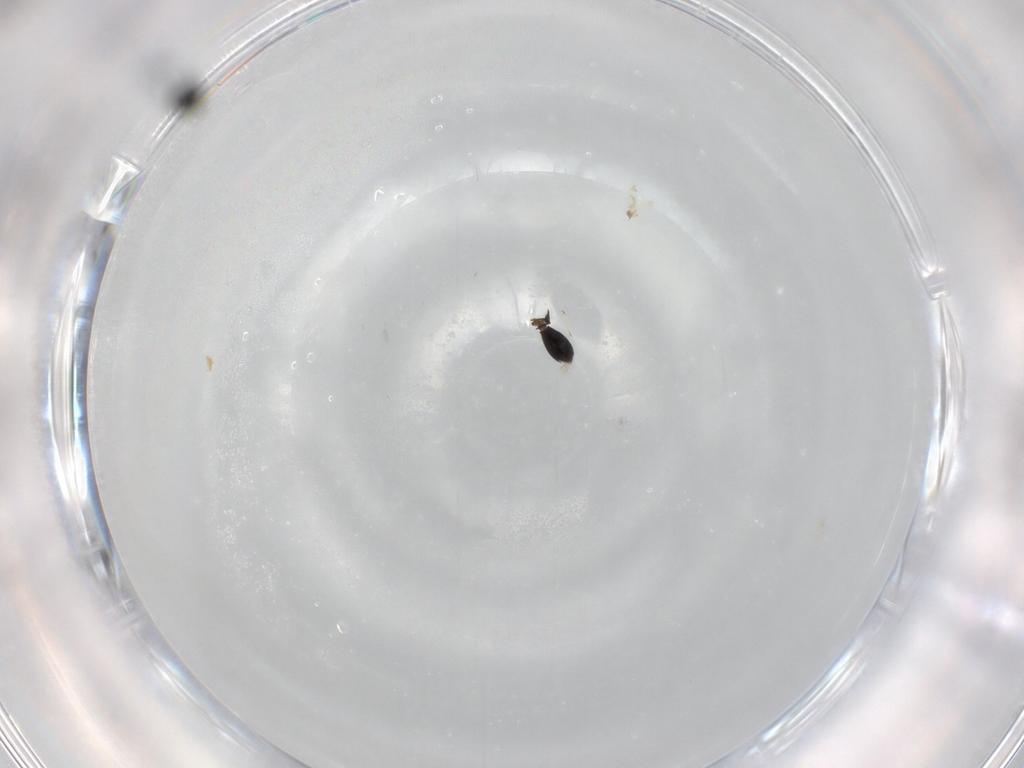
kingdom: Animalia
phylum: Arthropoda
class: Insecta
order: Hymenoptera
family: Scelionidae
